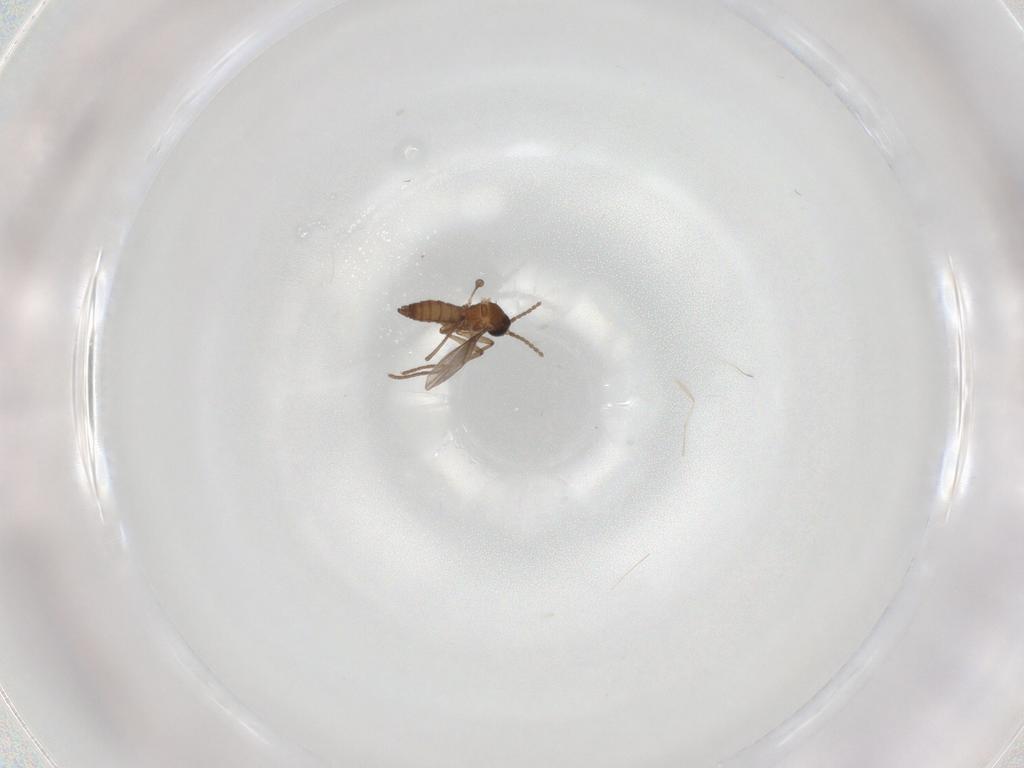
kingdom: Animalia
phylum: Arthropoda
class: Insecta
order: Diptera
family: Sciaridae
